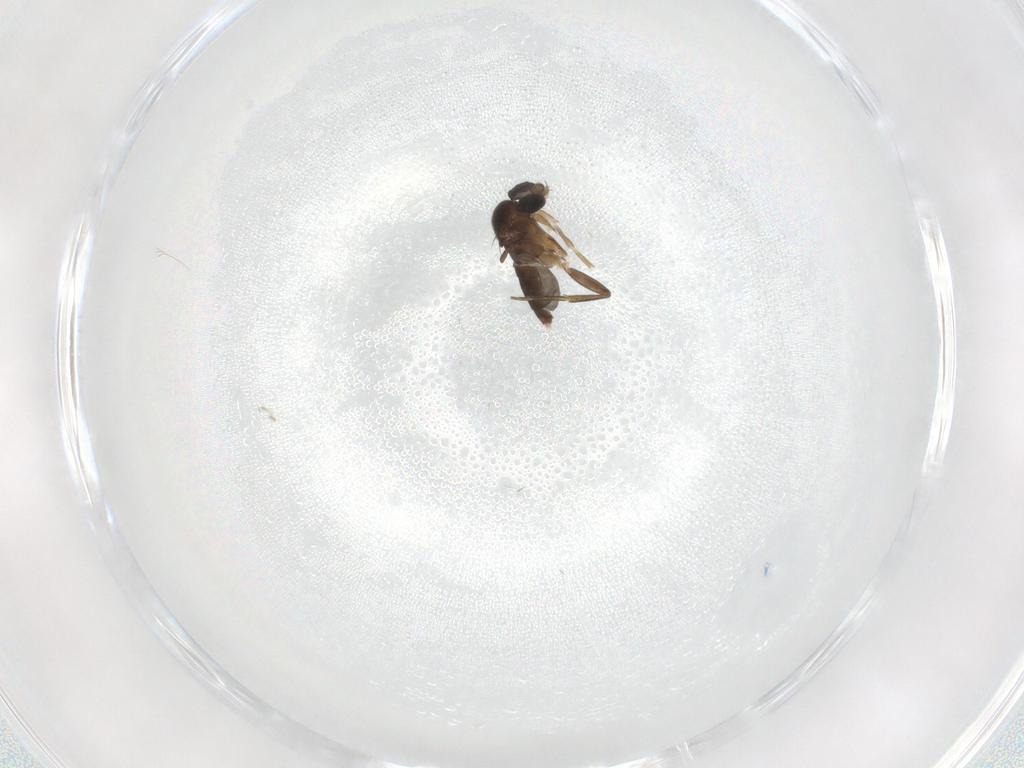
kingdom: Animalia
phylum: Arthropoda
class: Insecta
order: Diptera
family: Phoridae
